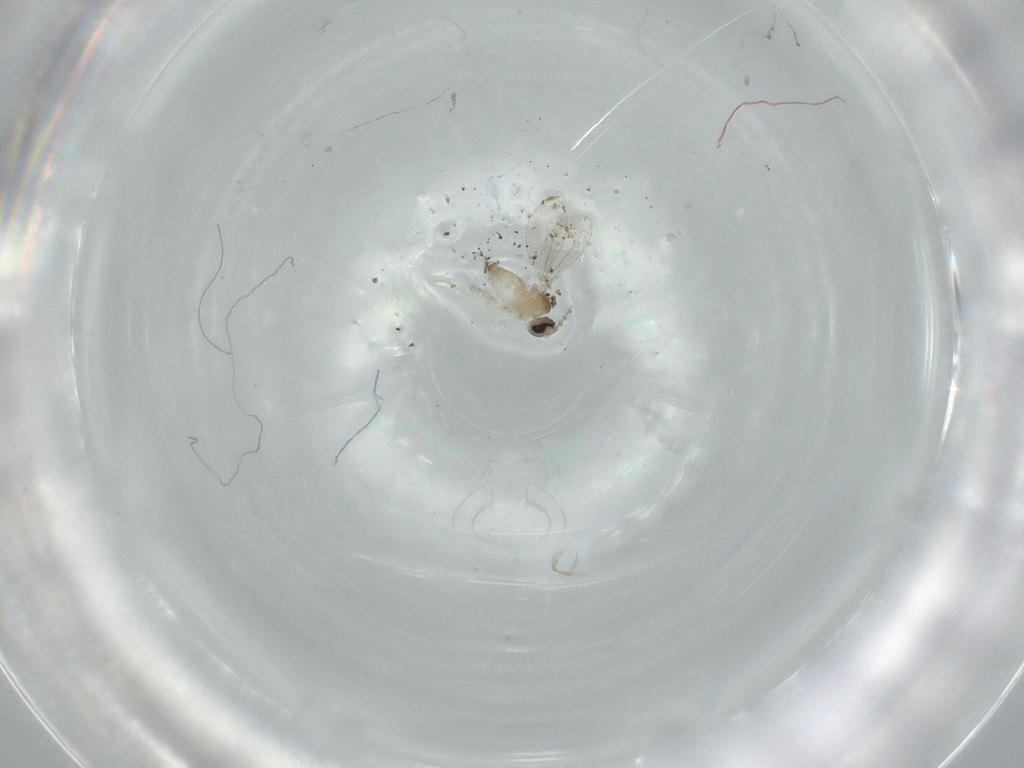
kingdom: Animalia
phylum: Arthropoda
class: Insecta
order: Diptera
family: Cecidomyiidae
